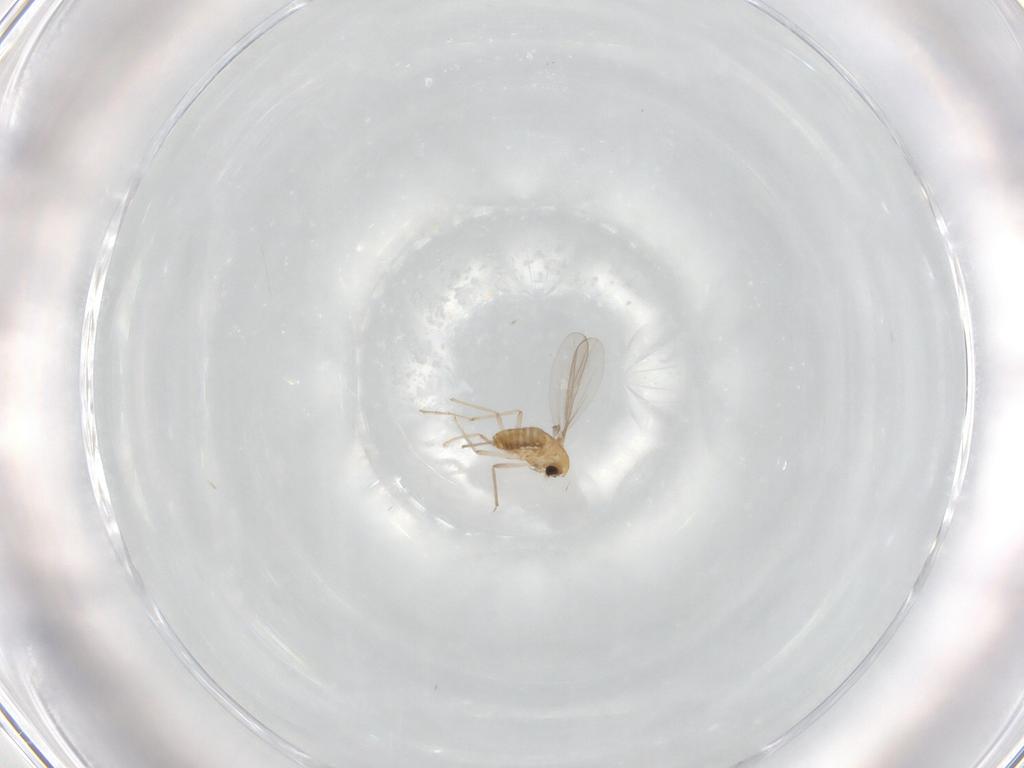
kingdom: Animalia
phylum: Arthropoda
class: Insecta
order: Diptera
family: Chironomidae
